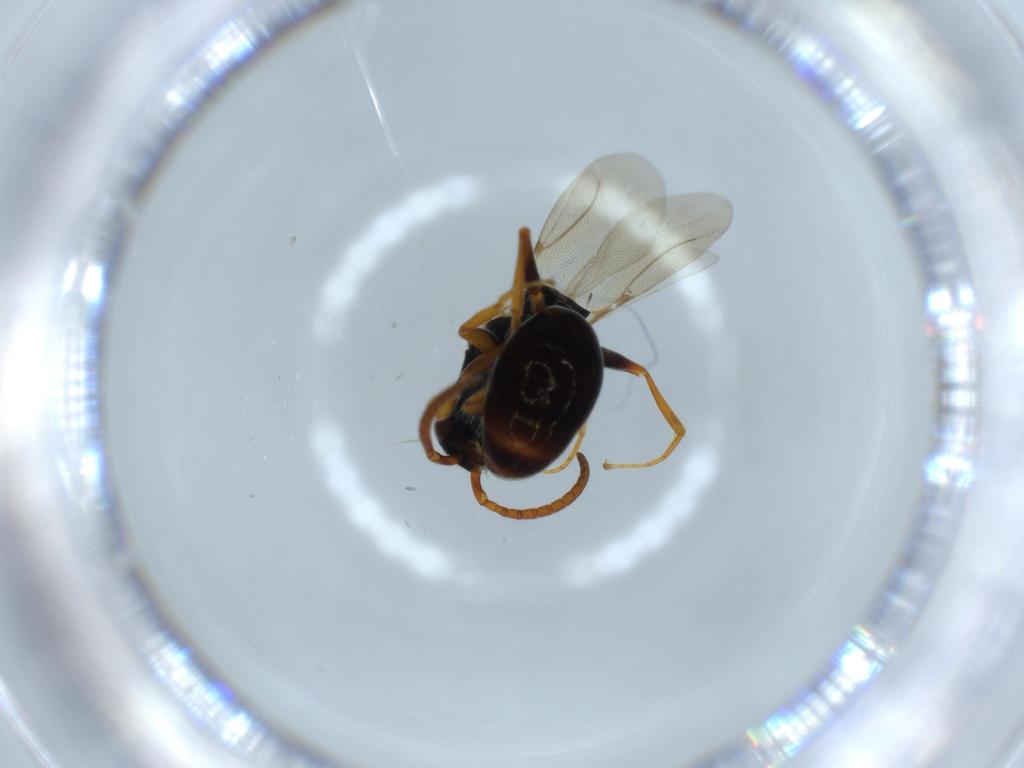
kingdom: Animalia
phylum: Arthropoda
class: Insecta
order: Hymenoptera
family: Bethylidae
